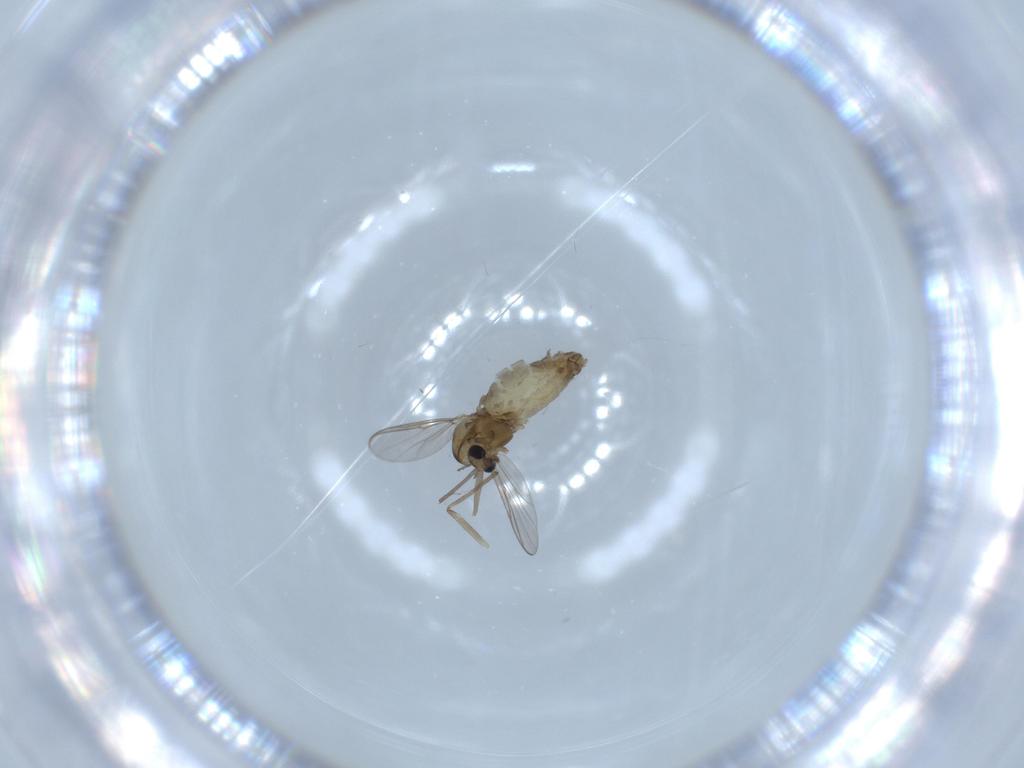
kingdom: Animalia
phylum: Arthropoda
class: Insecta
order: Diptera
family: Chironomidae
